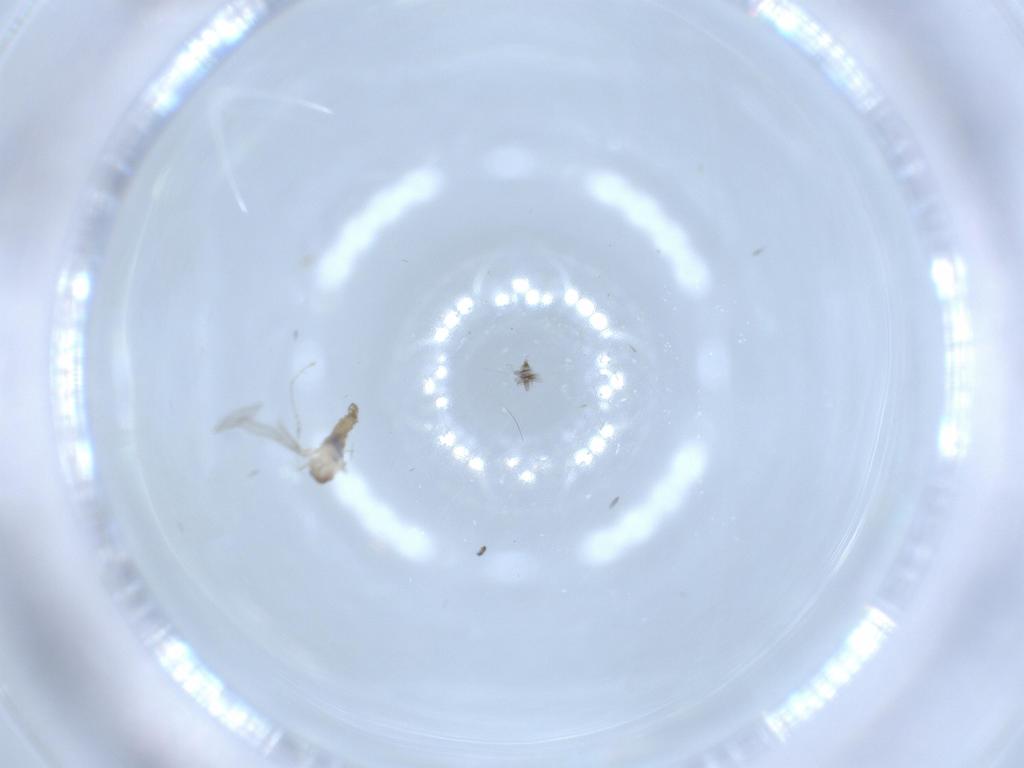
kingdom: Animalia
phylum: Arthropoda
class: Insecta
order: Diptera
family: Cecidomyiidae
